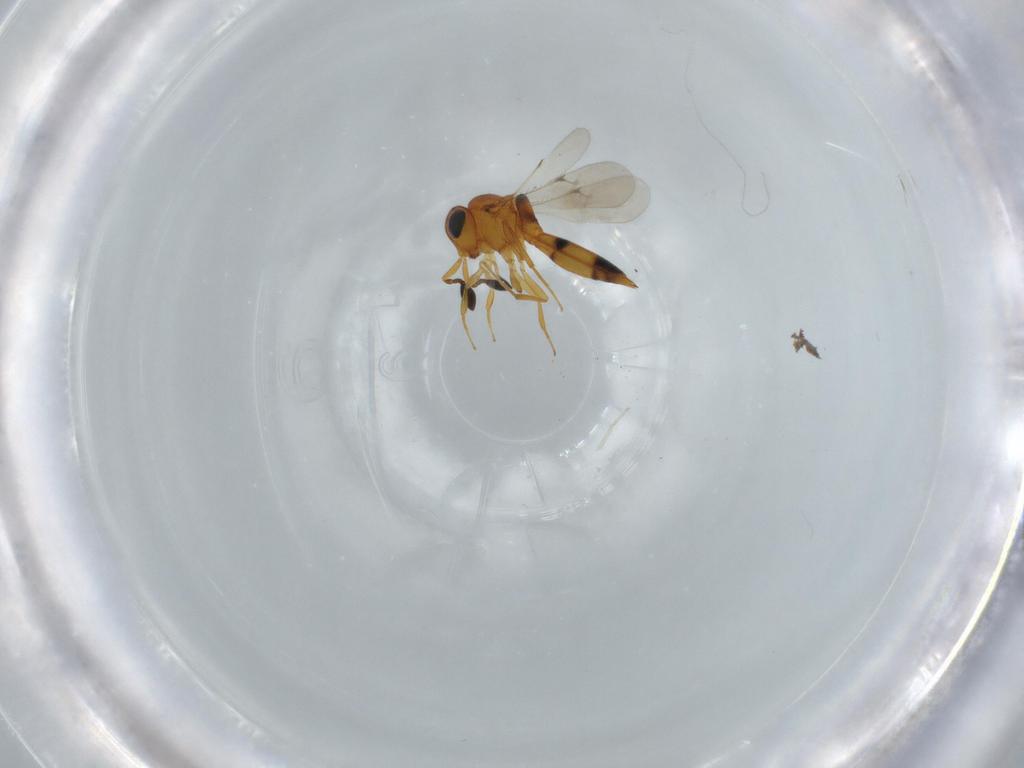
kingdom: Animalia
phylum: Arthropoda
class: Insecta
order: Hymenoptera
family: Scelionidae
